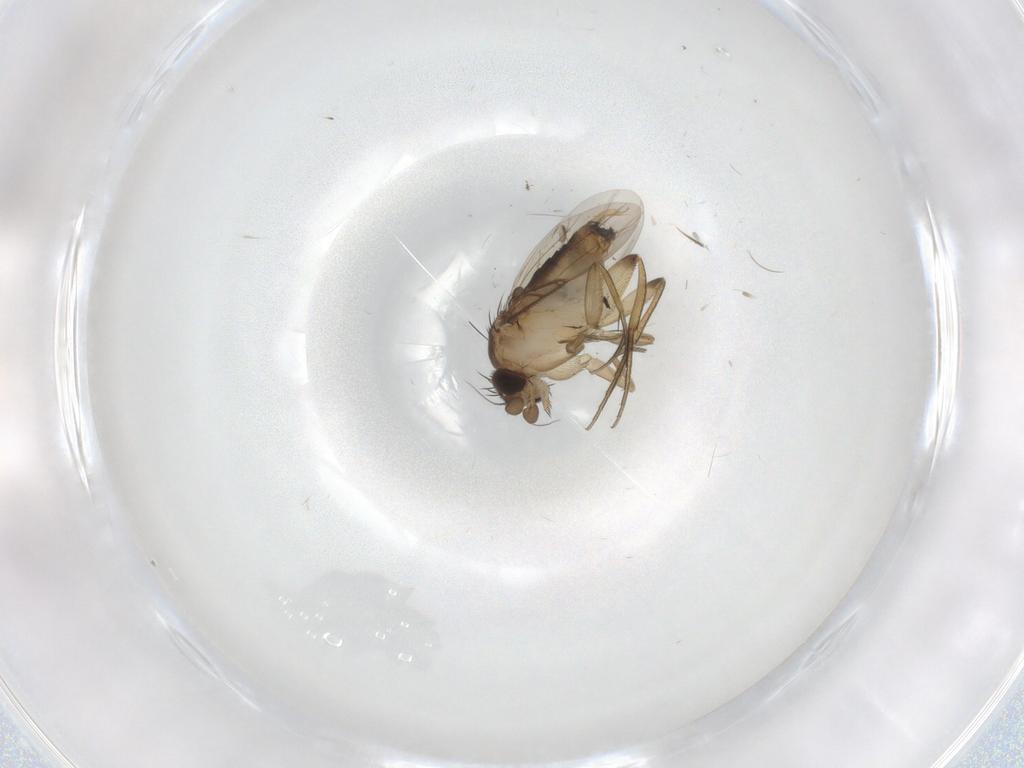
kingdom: Animalia
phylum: Arthropoda
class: Insecta
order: Diptera
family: Phoridae
